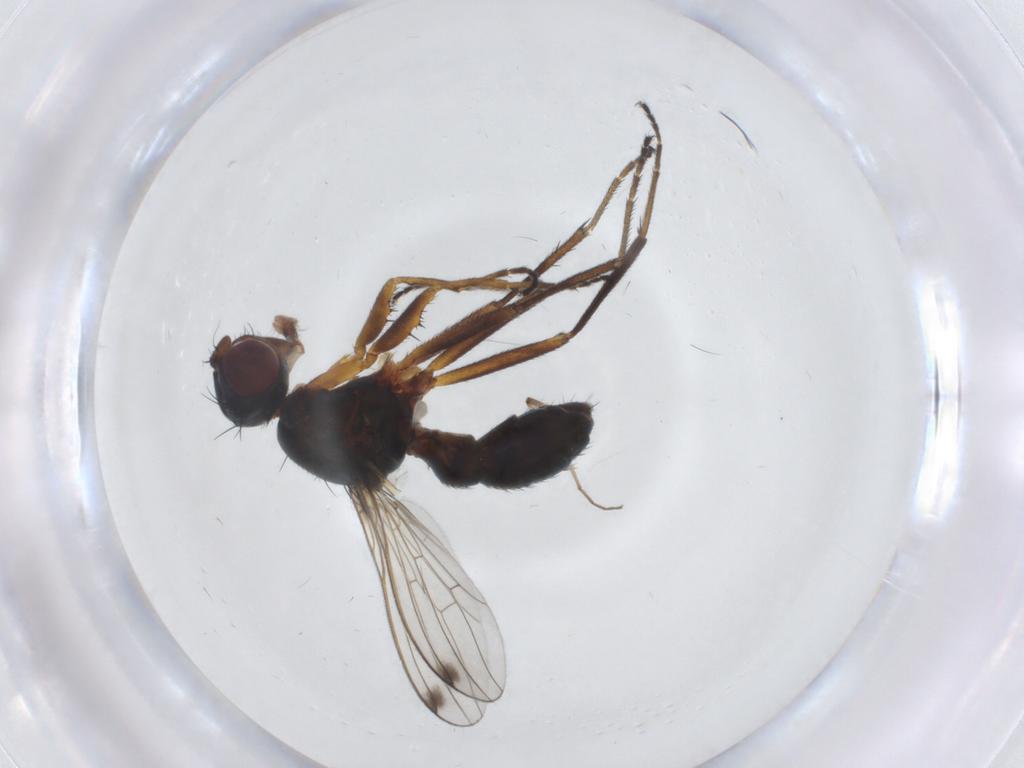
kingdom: Animalia
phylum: Arthropoda
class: Insecta
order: Diptera
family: Sepsidae
